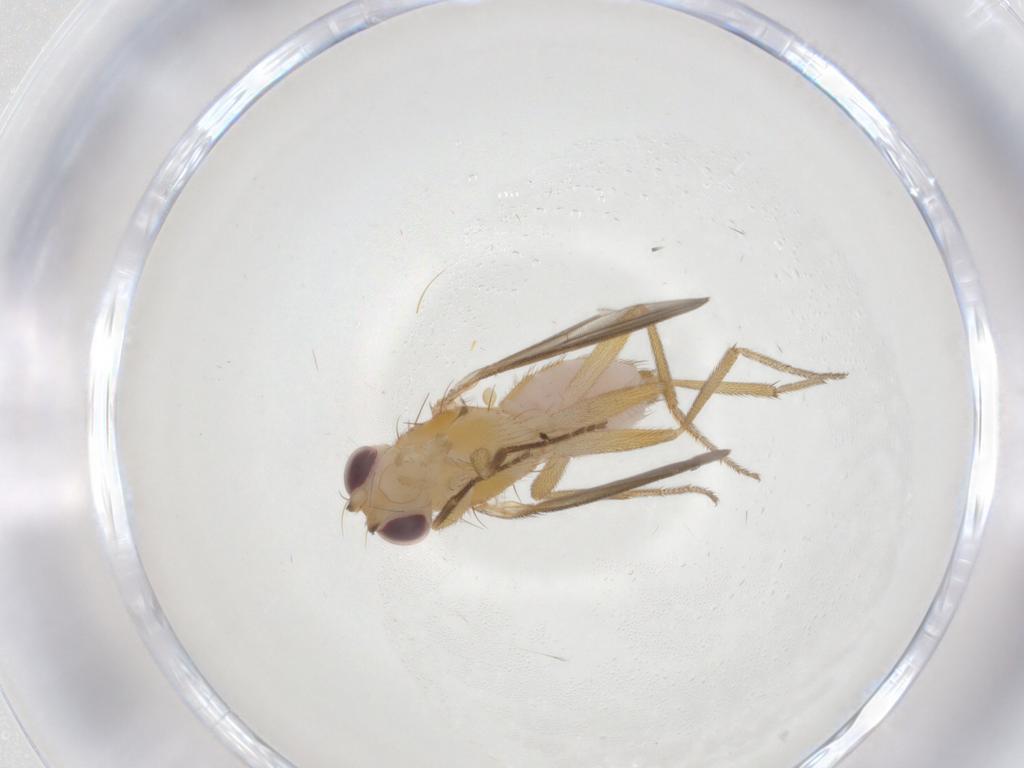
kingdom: Animalia
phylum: Arthropoda
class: Insecta
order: Diptera
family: Clusiidae
